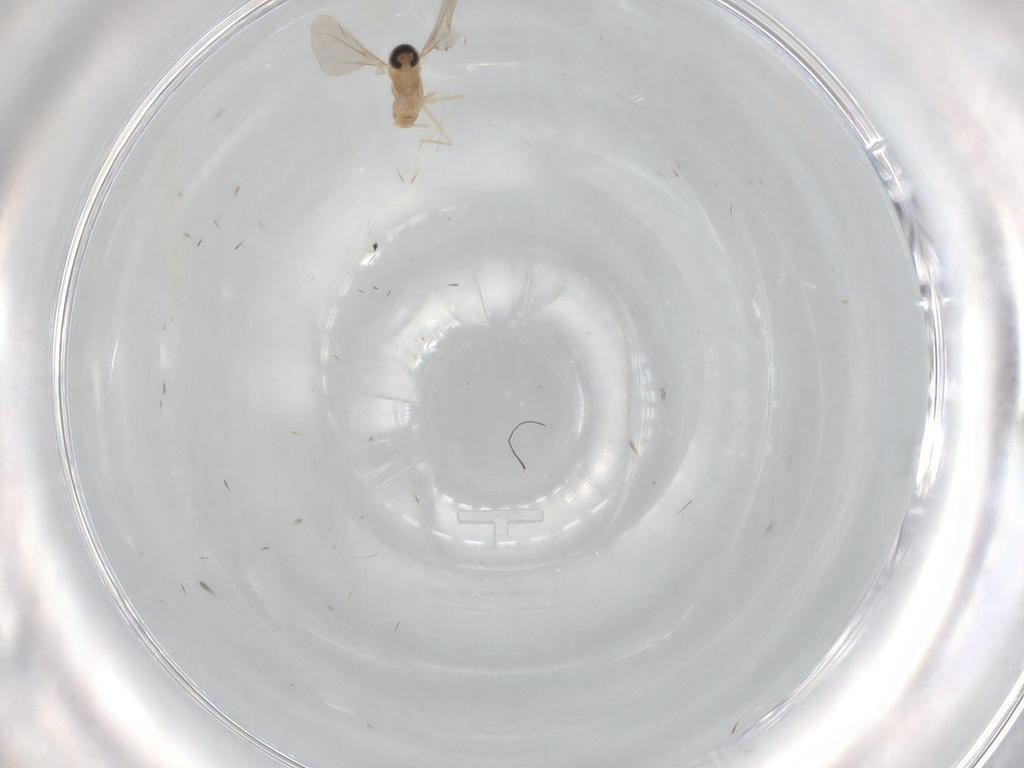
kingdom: Animalia
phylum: Arthropoda
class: Insecta
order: Diptera
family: Cecidomyiidae
